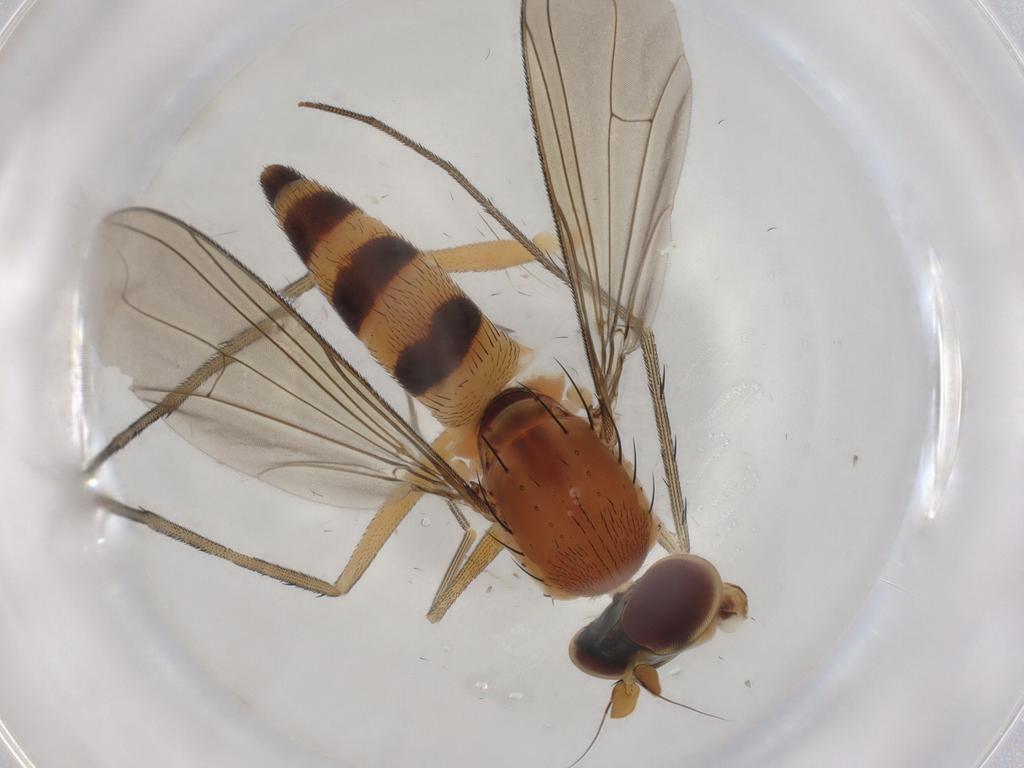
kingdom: Animalia
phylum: Arthropoda
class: Insecta
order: Diptera
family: Dolichopodidae
